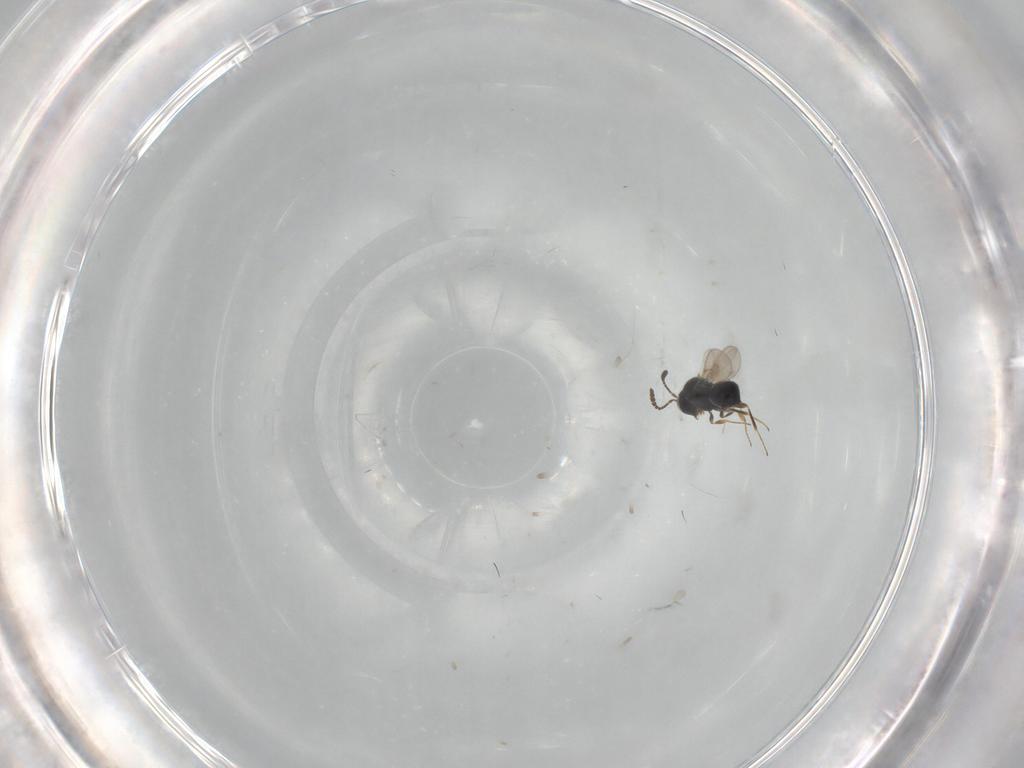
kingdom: Animalia
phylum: Arthropoda
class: Insecta
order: Hymenoptera
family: Scelionidae
